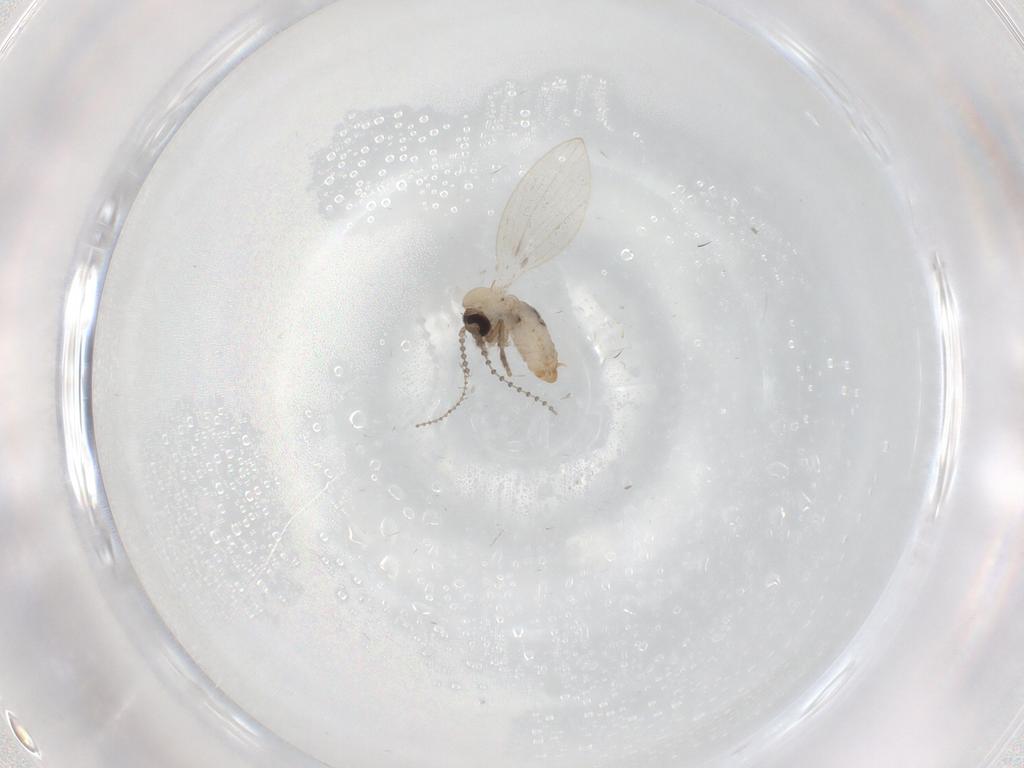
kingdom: Animalia
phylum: Arthropoda
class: Insecta
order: Diptera
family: Psychodidae
